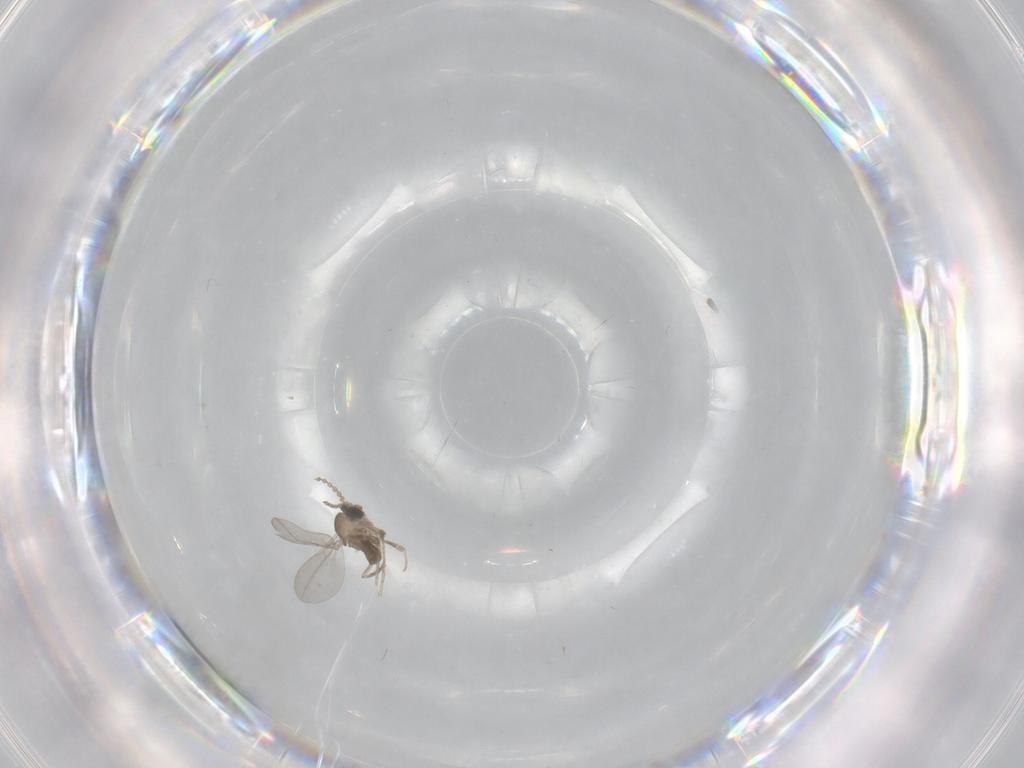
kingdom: Animalia
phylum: Arthropoda
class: Insecta
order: Diptera
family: Cecidomyiidae
